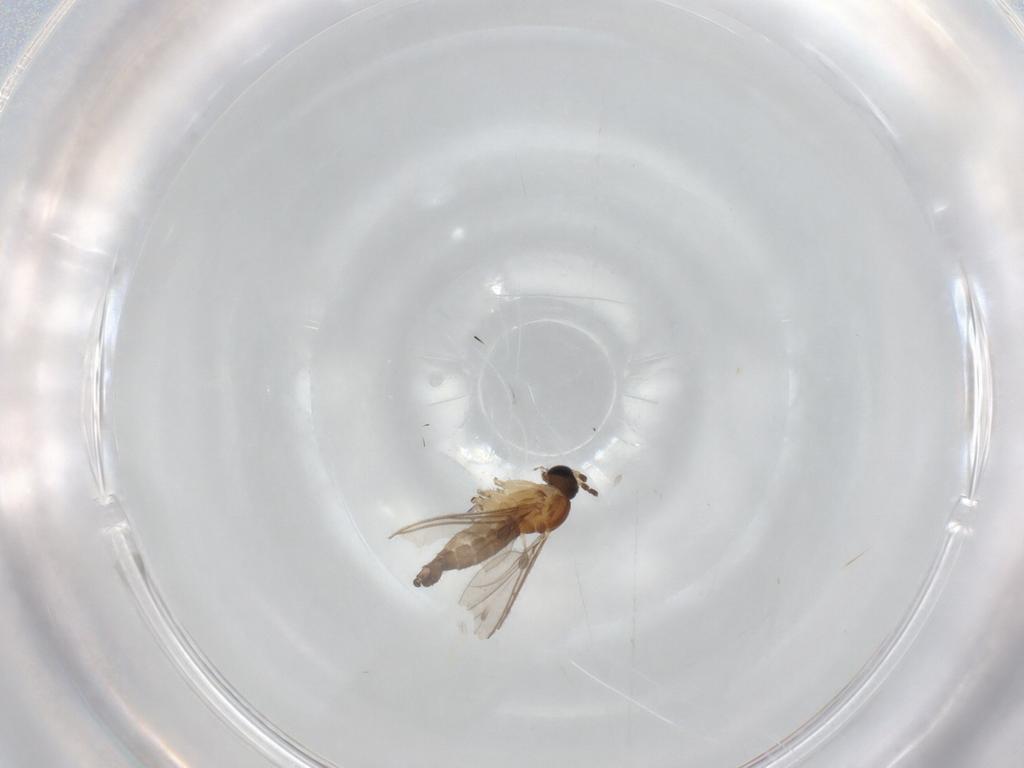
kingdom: Animalia
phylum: Arthropoda
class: Insecta
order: Diptera
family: Sciaridae
